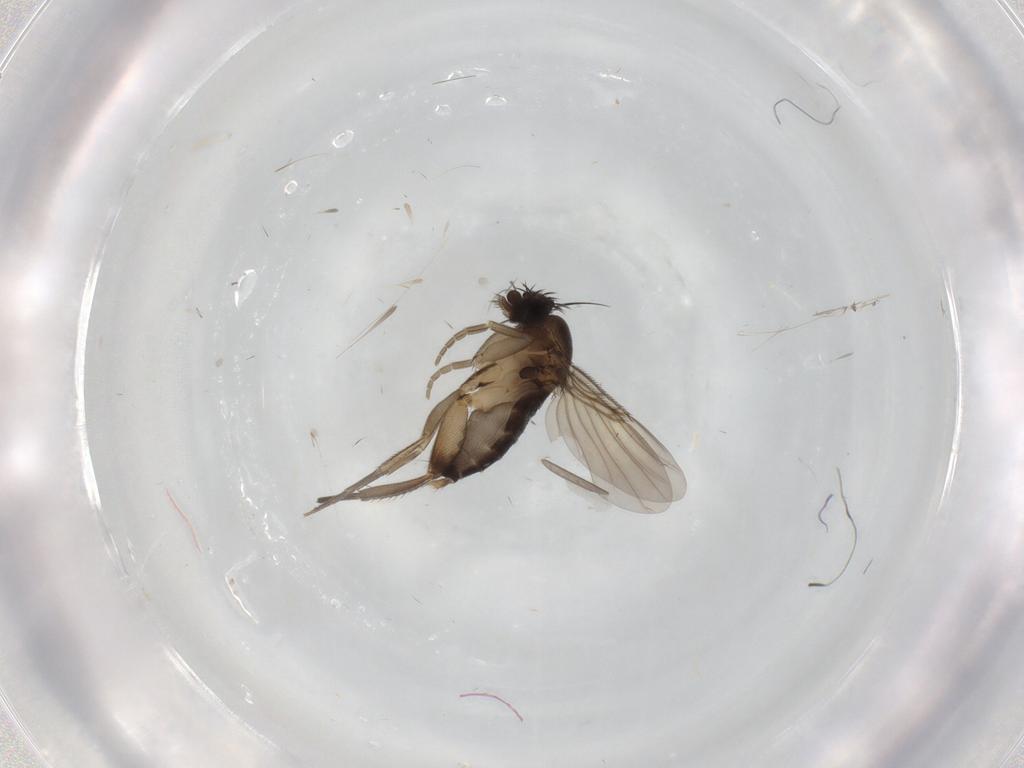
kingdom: Animalia
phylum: Arthropoda
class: Insecta
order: Diptera
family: Phoridae
